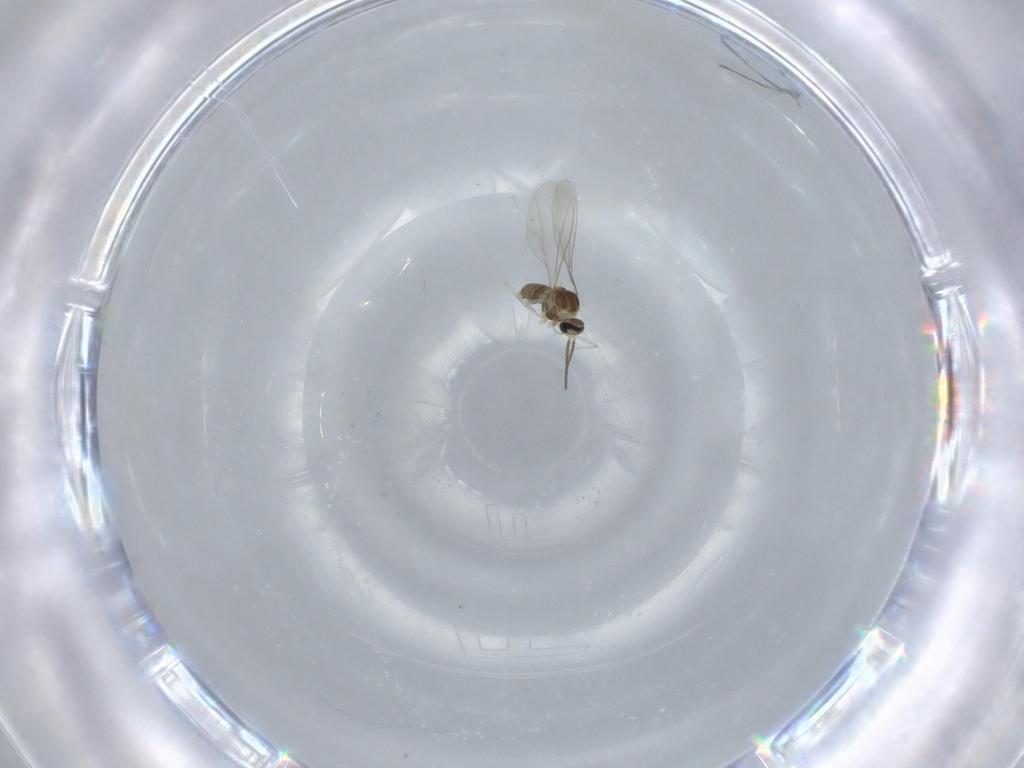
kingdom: Animalia
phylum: Arthropoda
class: Insecta
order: Diptera
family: Cecidomyiidae
